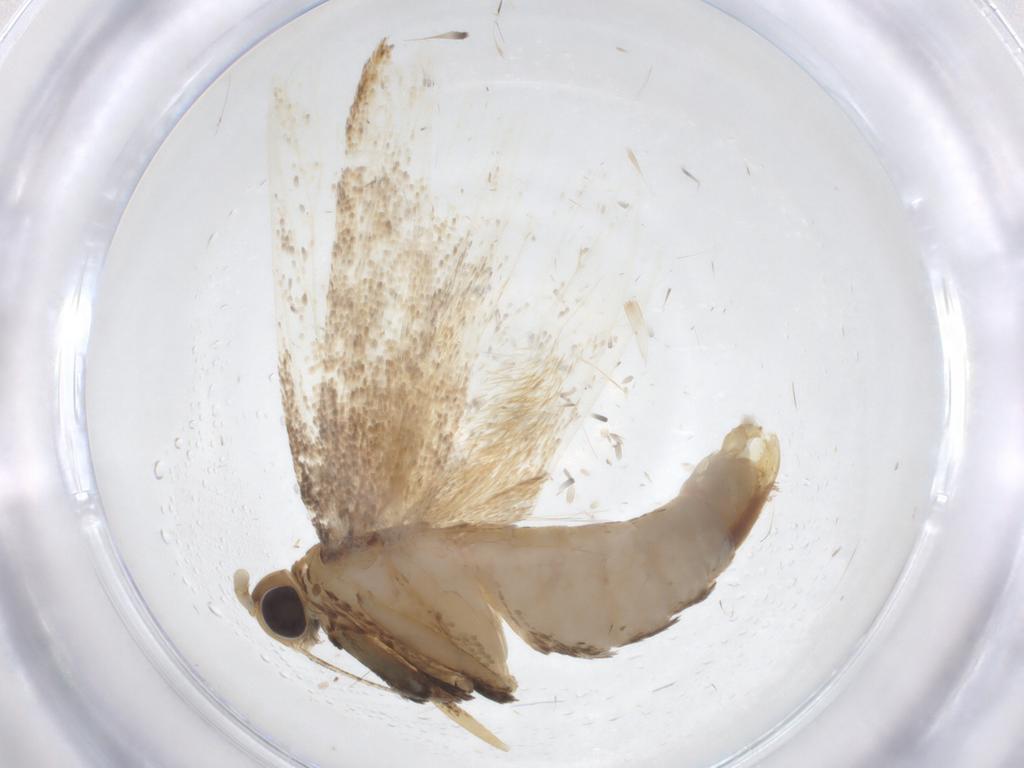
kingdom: Animalia
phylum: Arthropoda
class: Insecta
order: Lepidoptera
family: Lecithoceridae
